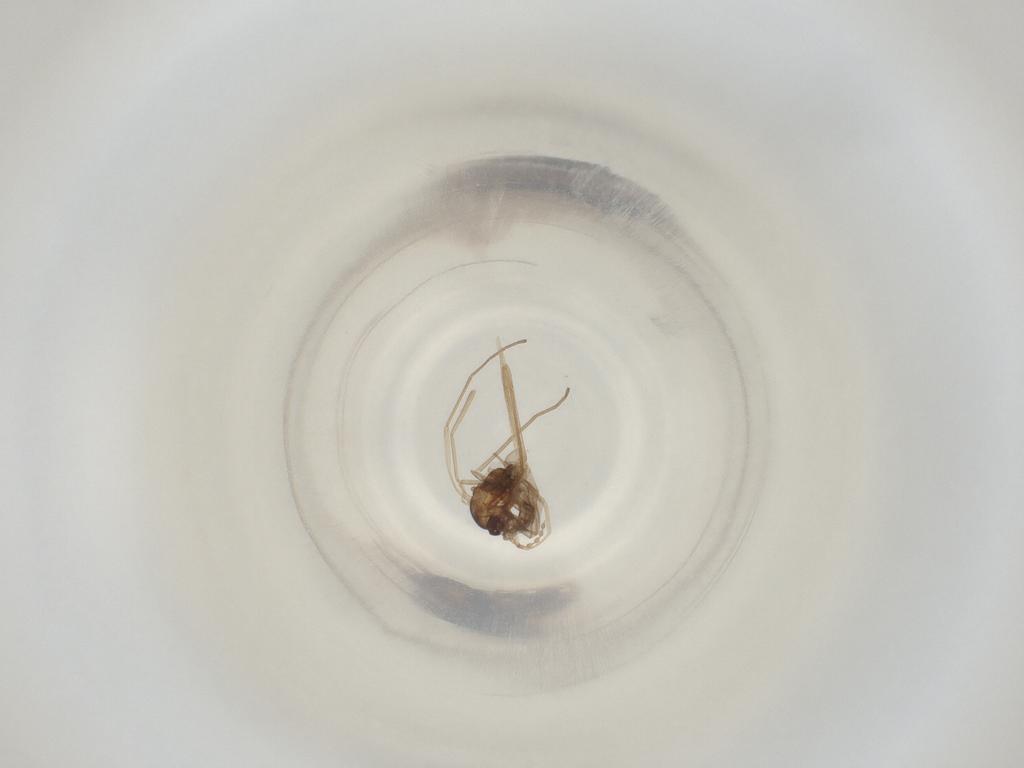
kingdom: Animalia
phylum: Arthropoda
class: Insecta
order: Diptera
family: Cecidomyiidae
